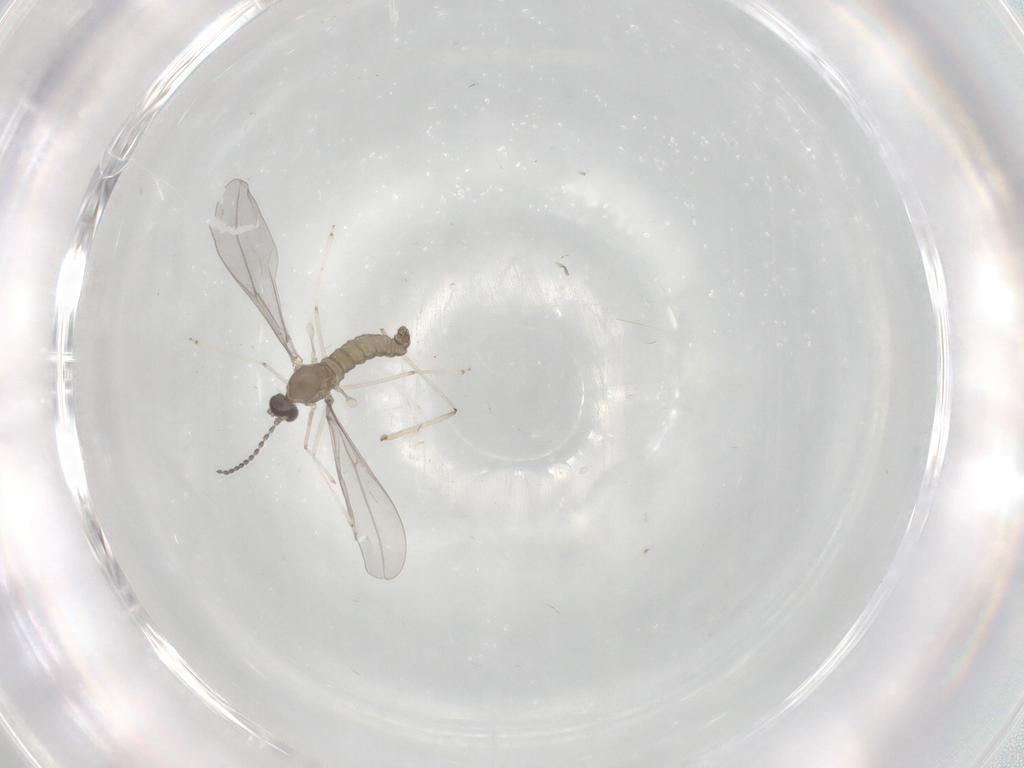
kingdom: Animalia
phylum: Arthropoda
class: Insecta
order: Diptera
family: Cecidomyiidae
